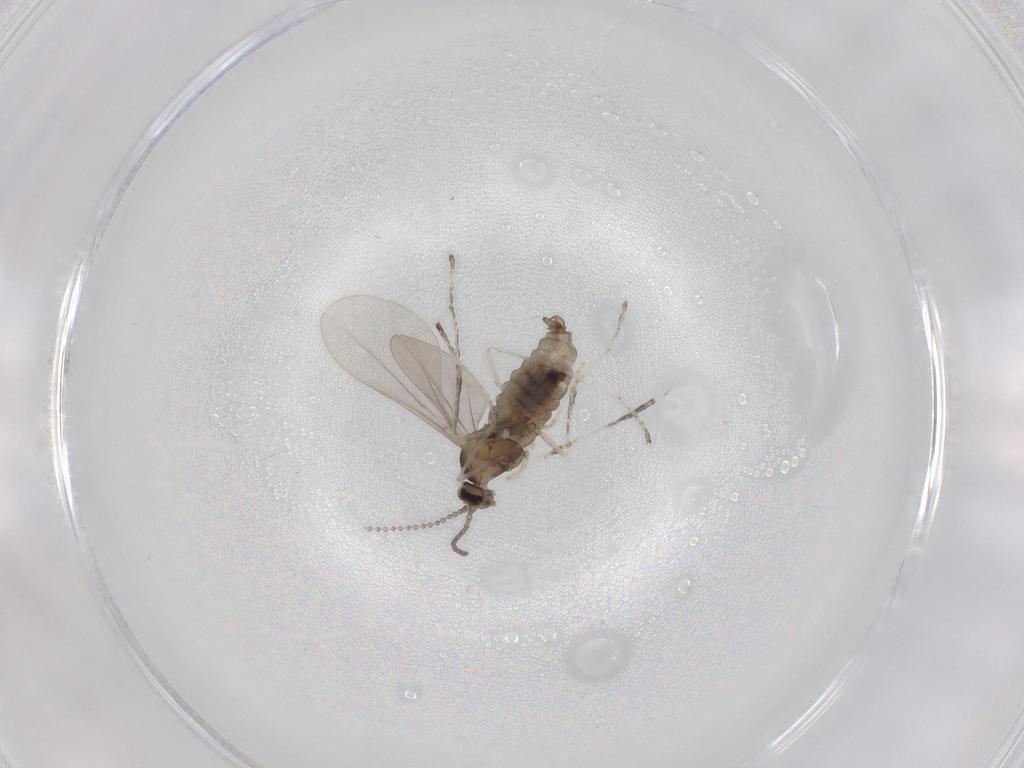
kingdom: Animalia
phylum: Arthropoda
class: Insecta
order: Diptera
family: Cecidomyiidae
